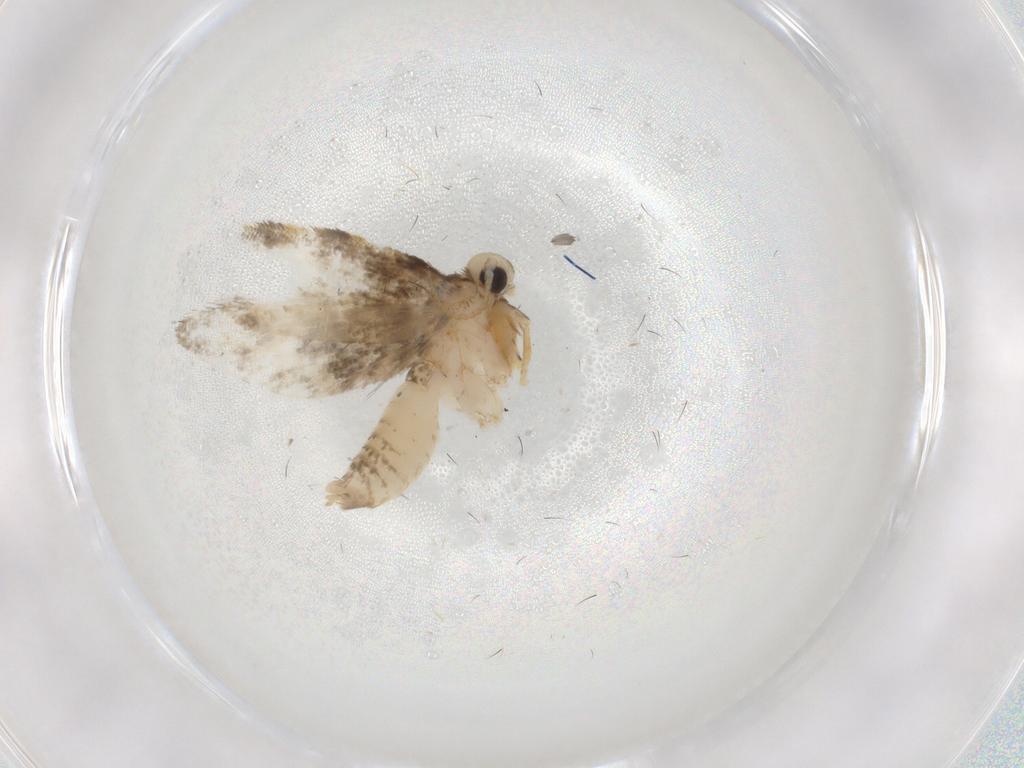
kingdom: Animalia
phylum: Arthropoda
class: Insecta
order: Lepidoptera
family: Psychidae
